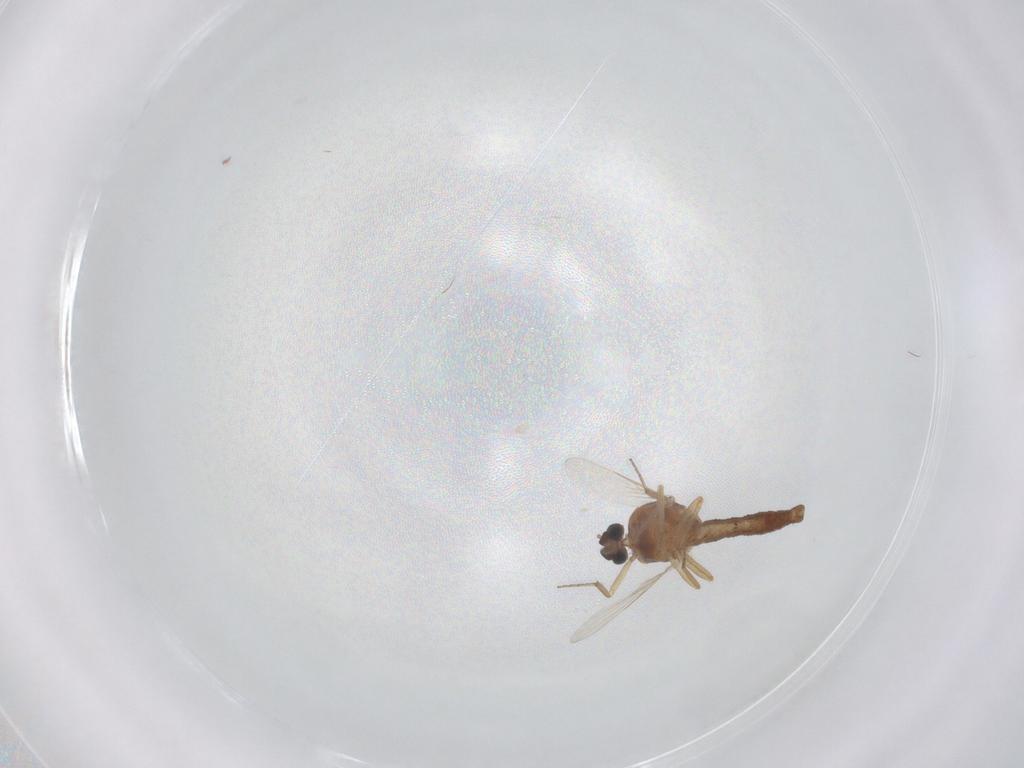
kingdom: Animalia
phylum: Arthropoda
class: Insecta
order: Diptera
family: Ceratopogonidae
